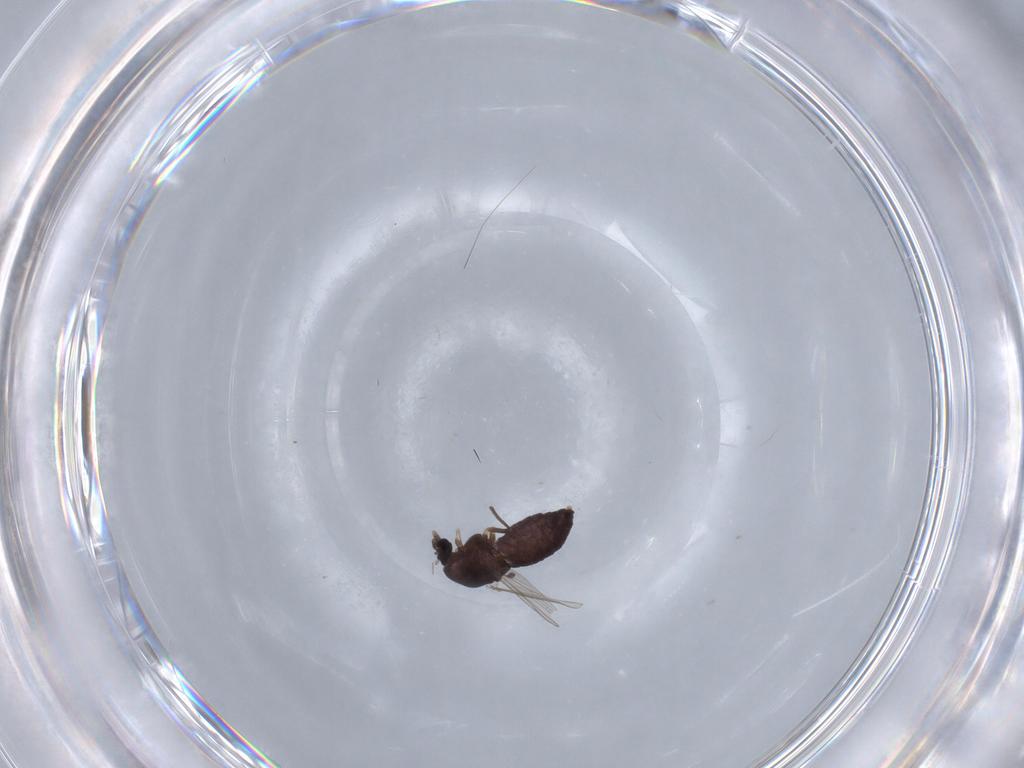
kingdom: Animalia
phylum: Arthropoda
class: Insecta
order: Diptera
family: Chironomidae
